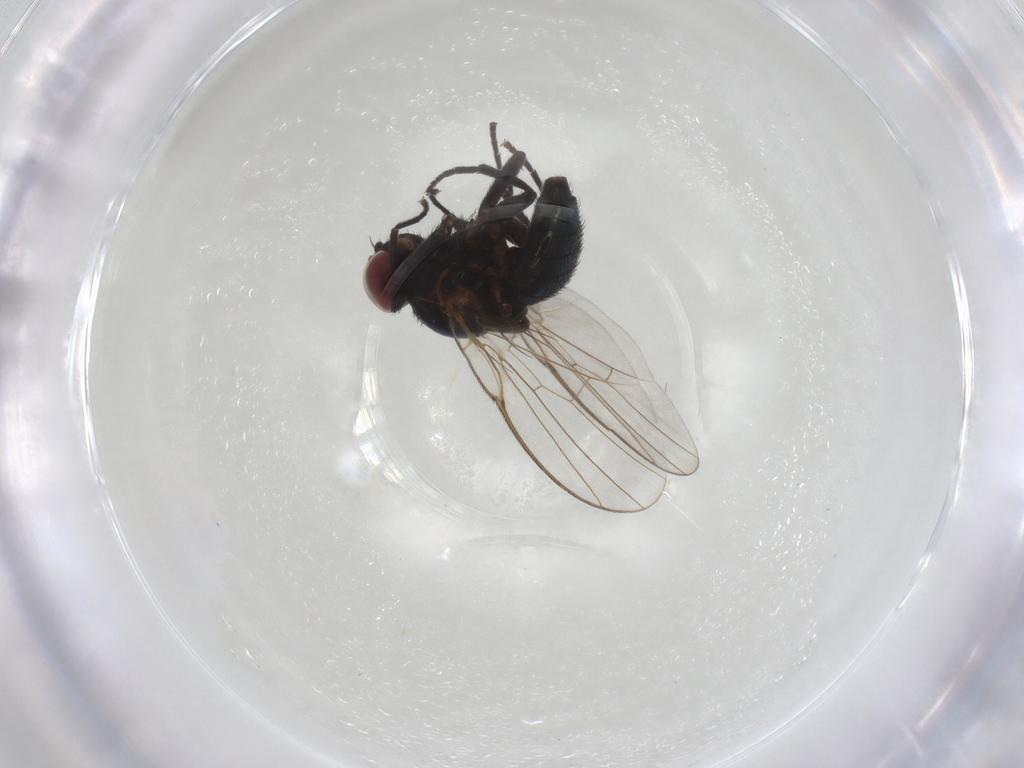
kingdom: Animalia
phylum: Arthropoda
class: Insecta
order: Diptera
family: Agromyzidae
